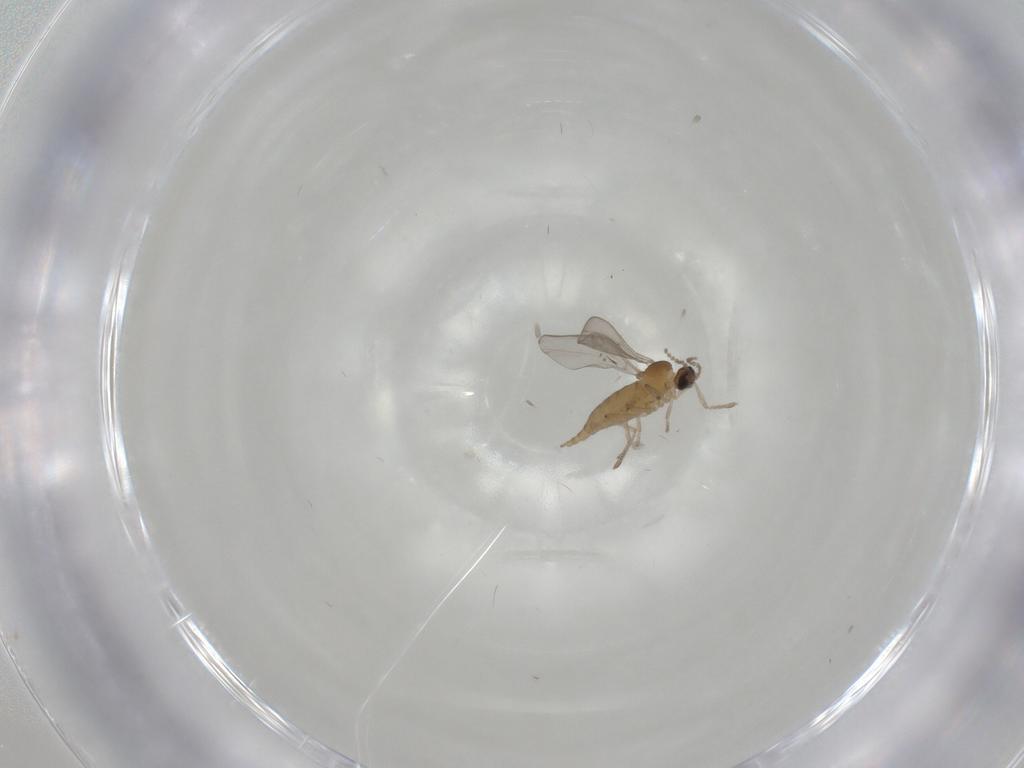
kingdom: Animalia
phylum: Arthropoda
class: Insecta
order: Diptera
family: Cecidomyiidae
